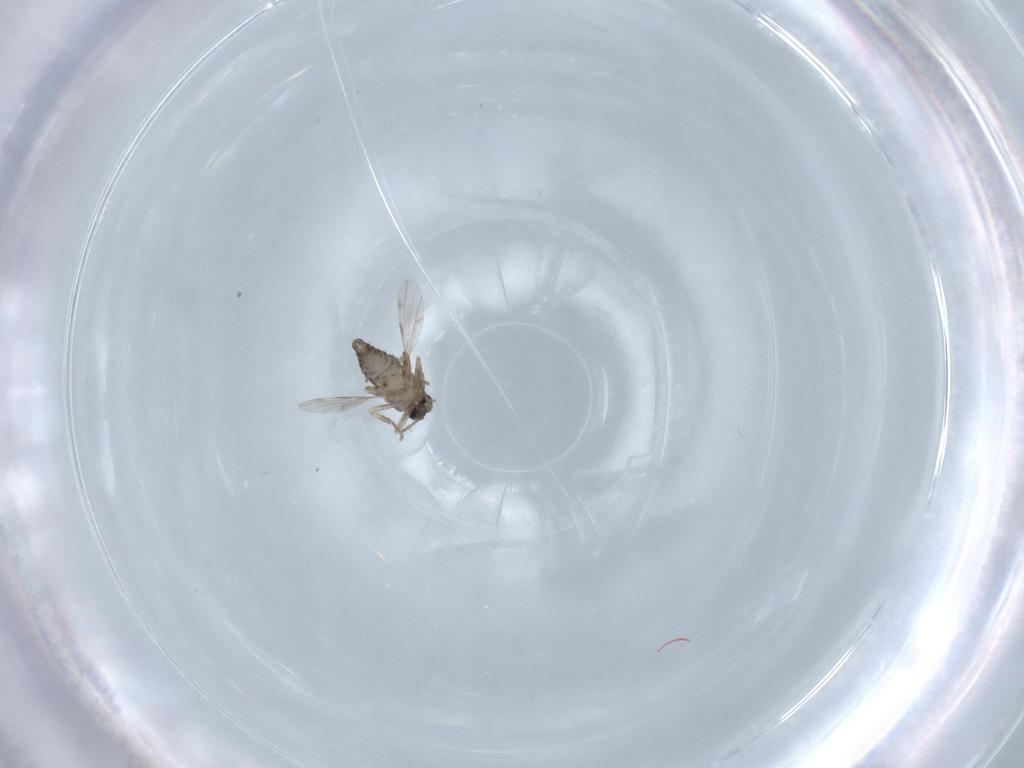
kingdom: Animalia
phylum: Arthropoda
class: Insecta
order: Diptera
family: Ceratopogonidae
